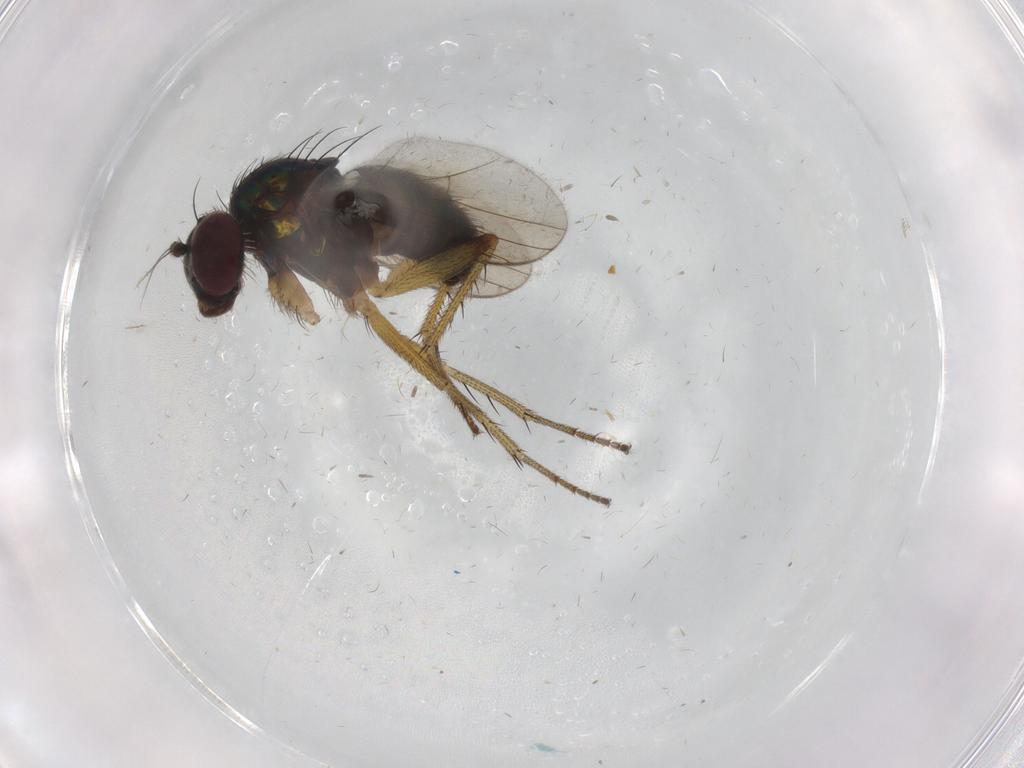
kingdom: Animalia
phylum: Arthropoda
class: Insecta
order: Diptera
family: Dolichopodidae
